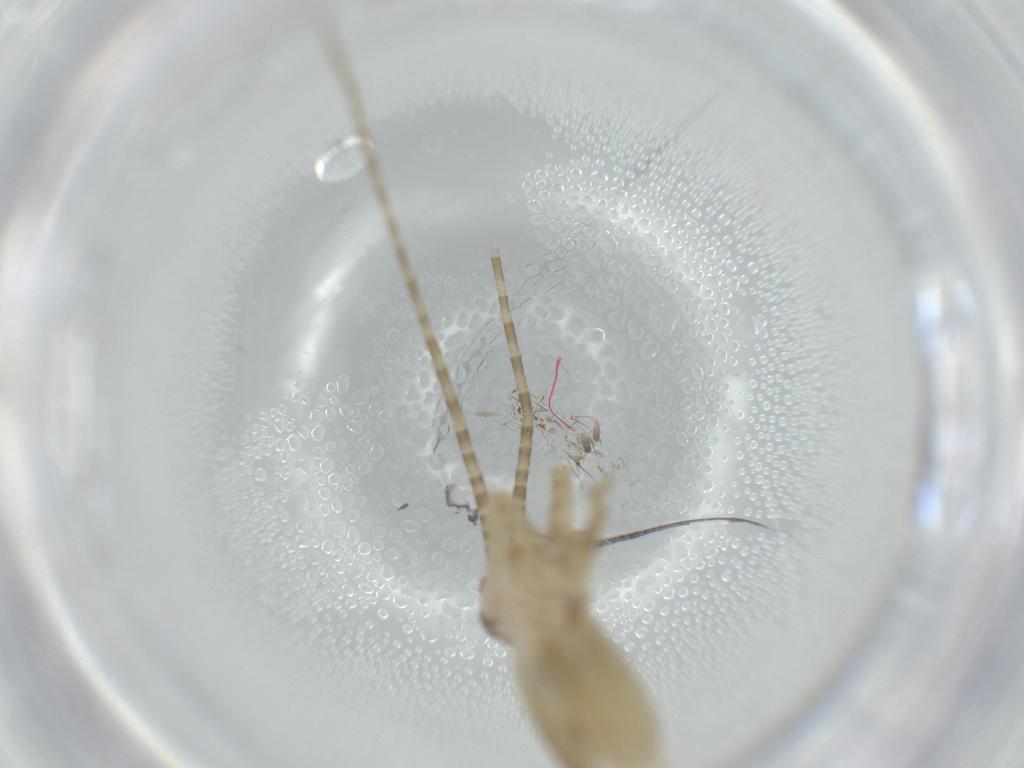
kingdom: Animalia
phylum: Arthropoda
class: Insecta
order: Orthoptera
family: Gryllidae
